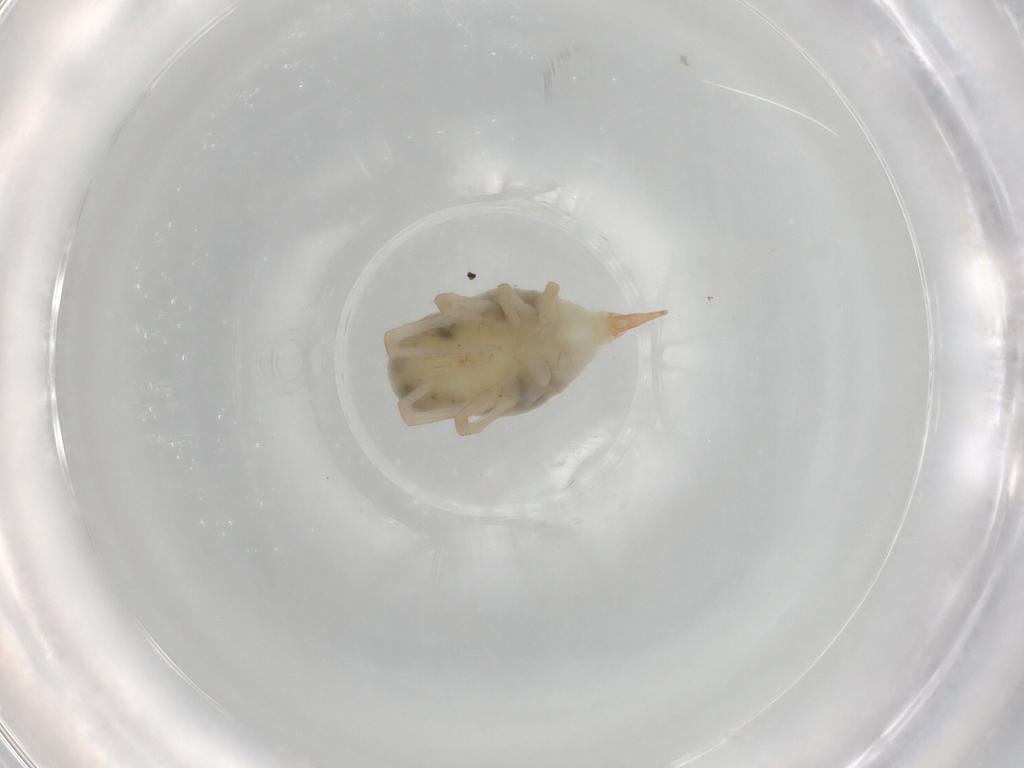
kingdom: Animalia
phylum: Arthropoda
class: Arachnida
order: Trombidiformes
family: Bdellidae
